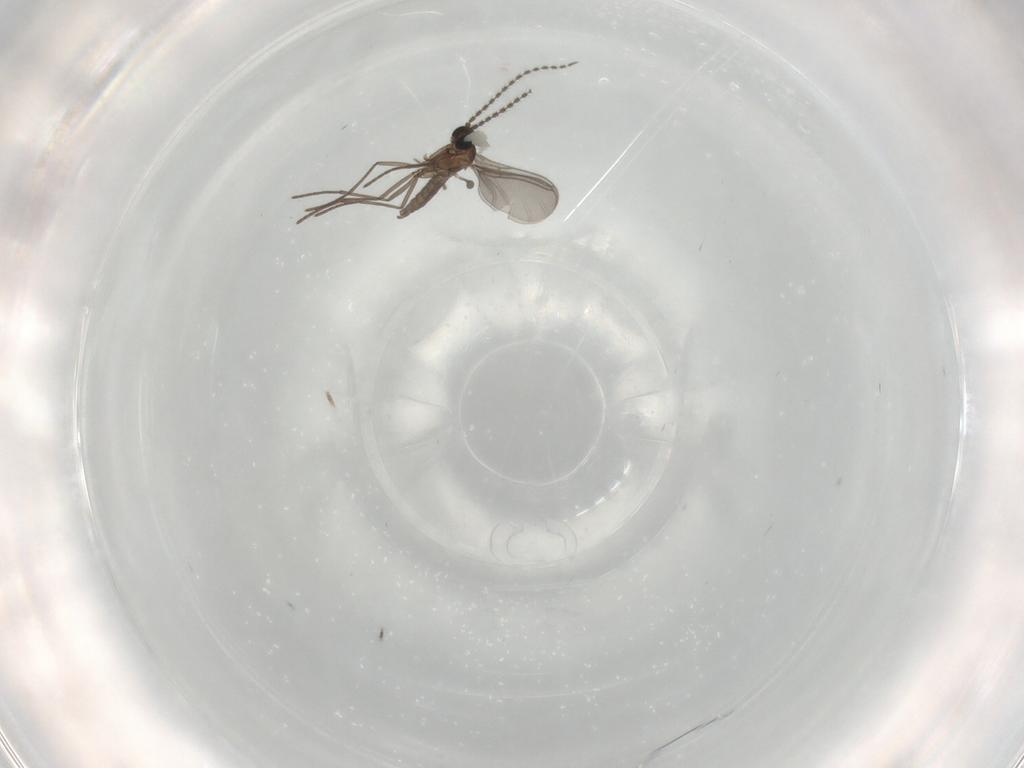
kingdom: Animalia
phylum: Arthropoda
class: Insecta
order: Diptera
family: Cecidomyiidae
